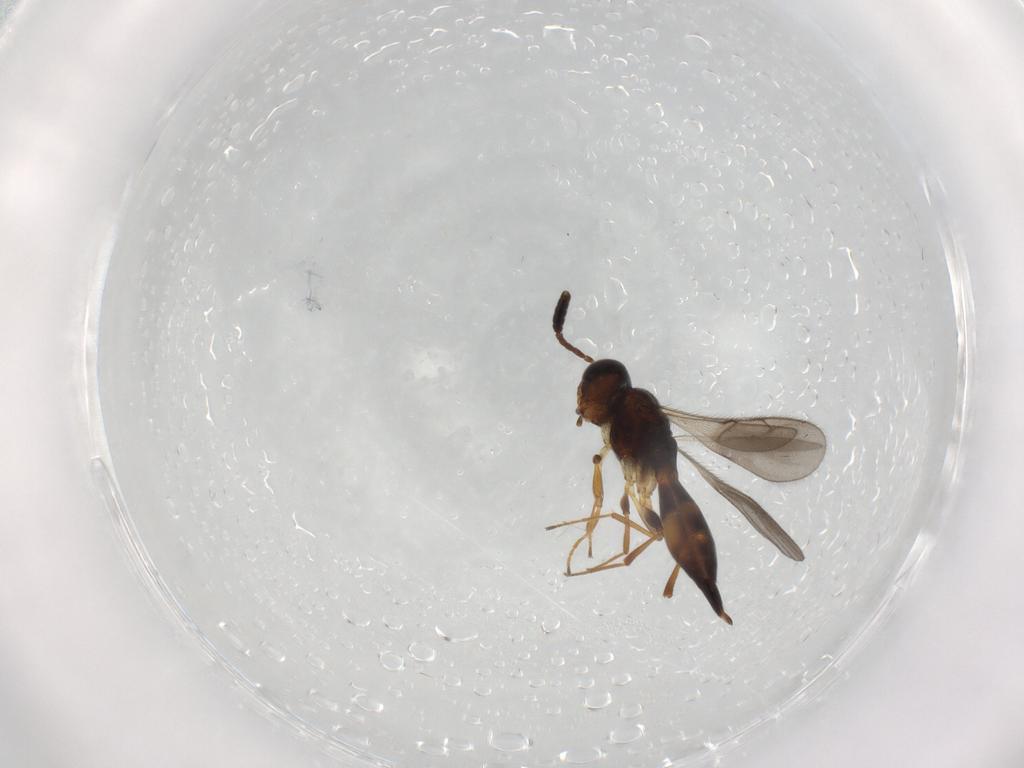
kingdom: Animalia
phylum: Arthropoda
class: Insecta
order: Hymenoptera
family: Scelionidae
